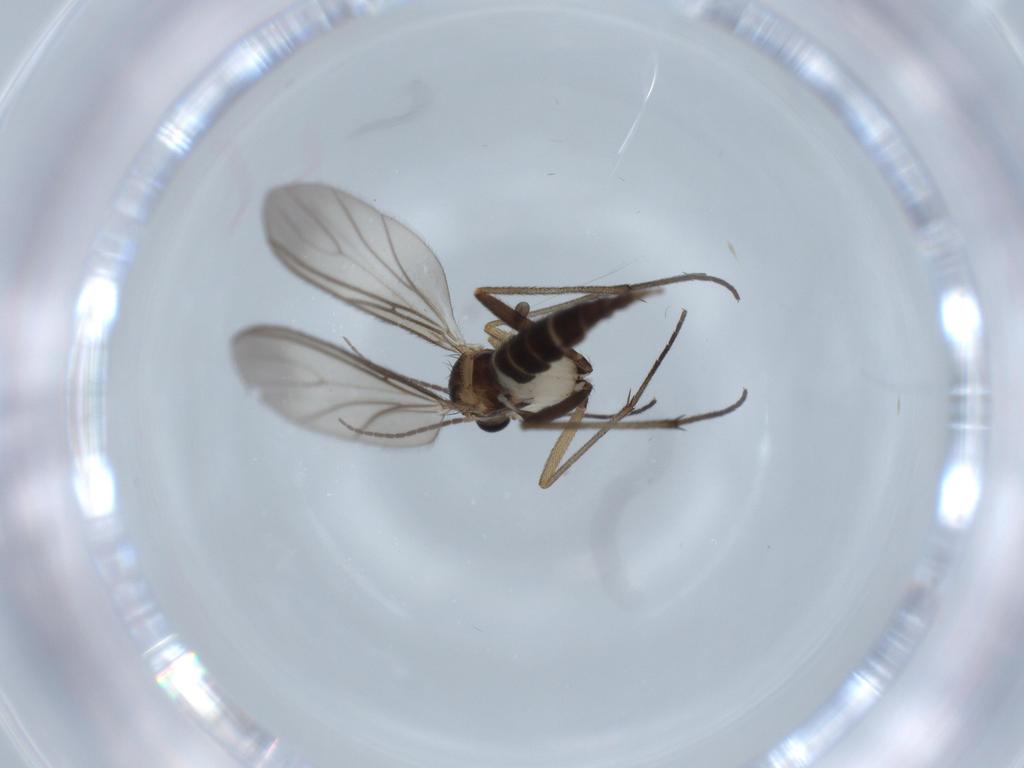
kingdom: Animalia
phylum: Arthropoda
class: Insecta
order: Diptera
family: Sciaridae
